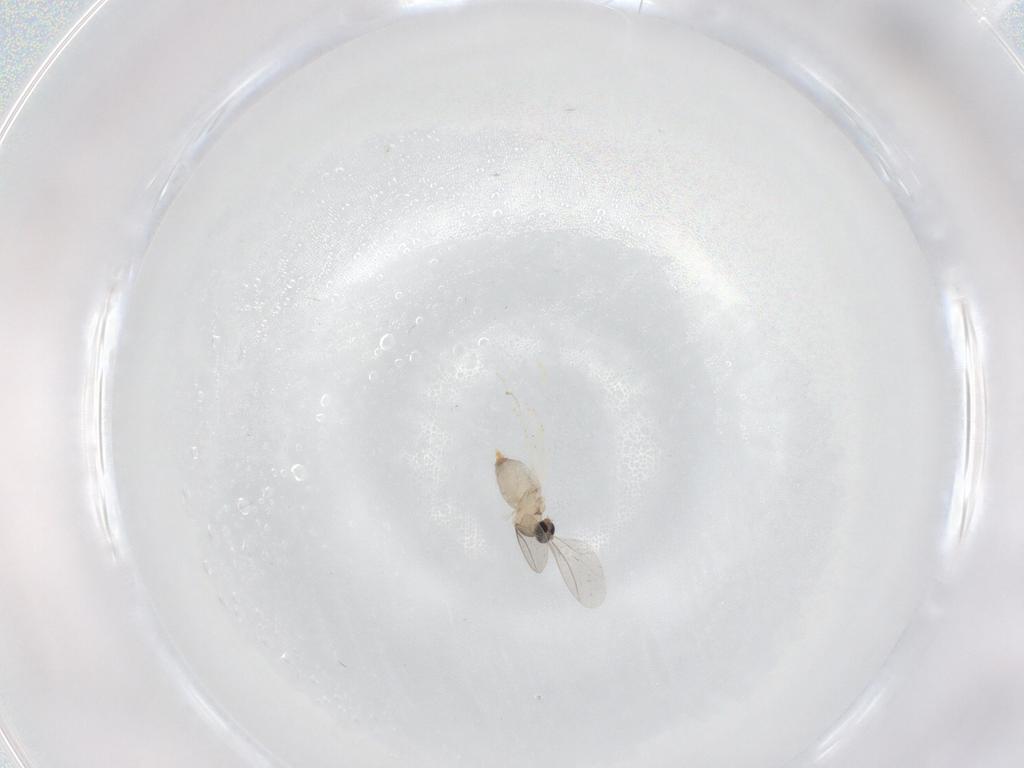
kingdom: Animalia
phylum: Arthropoda
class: Insecta
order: Diptera
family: Cecidomyiidae
